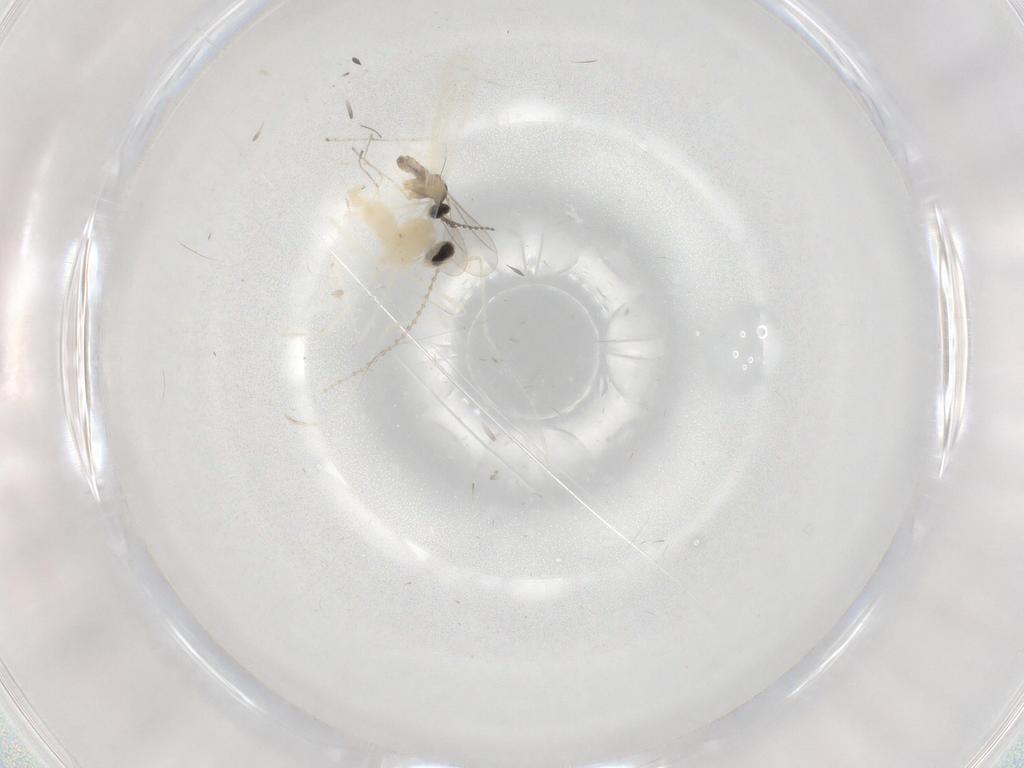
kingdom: Animalia
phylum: Arthropoda
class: Insecta
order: Diptera
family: Cecidomyiidae
